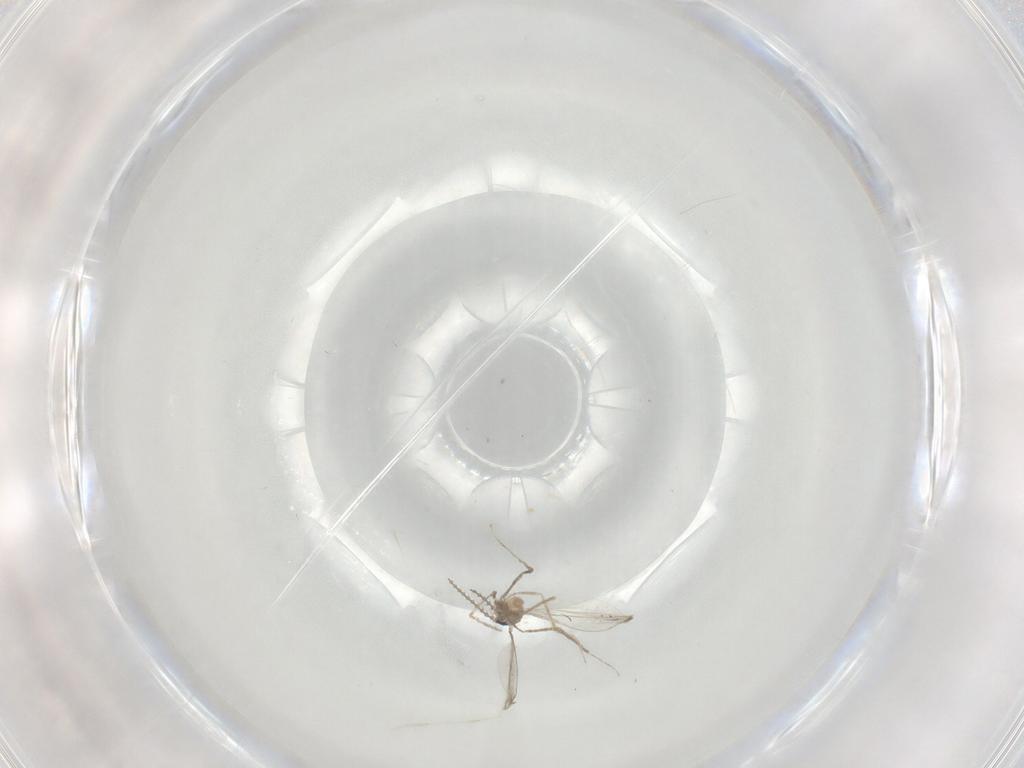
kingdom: Animalia
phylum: Arthropoda
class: Insecta
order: Diptera
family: Cecidomyiidae
